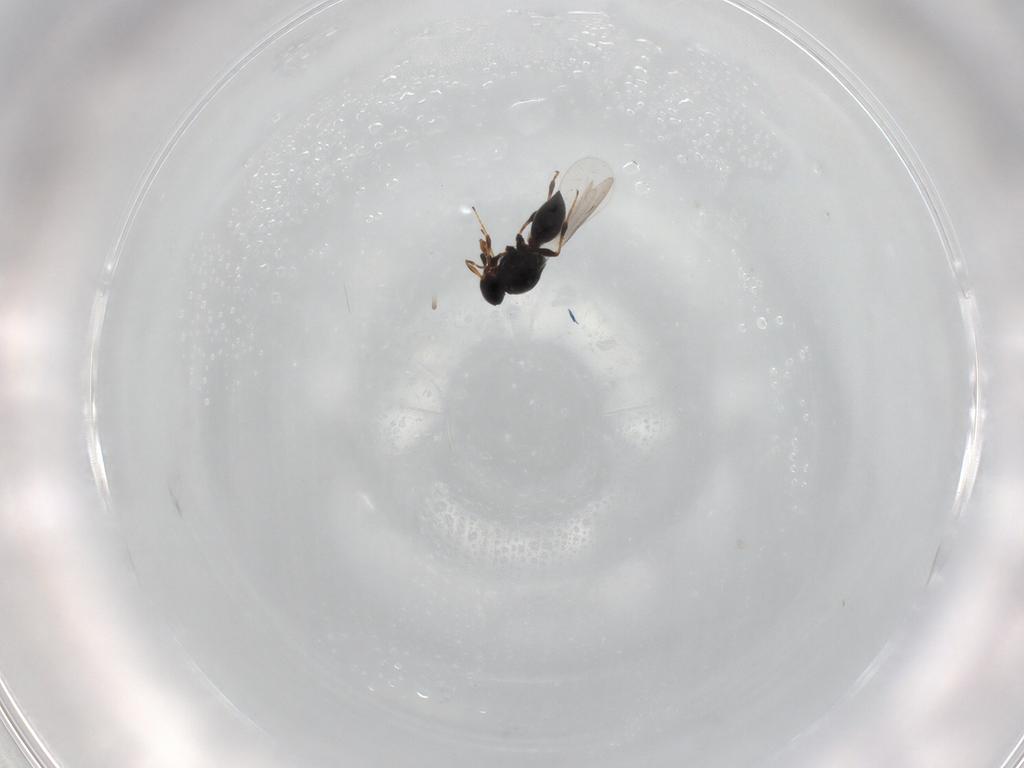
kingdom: Animalia
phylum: Arthropoda
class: Insecta
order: Hymenoptera
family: Platygastridae
